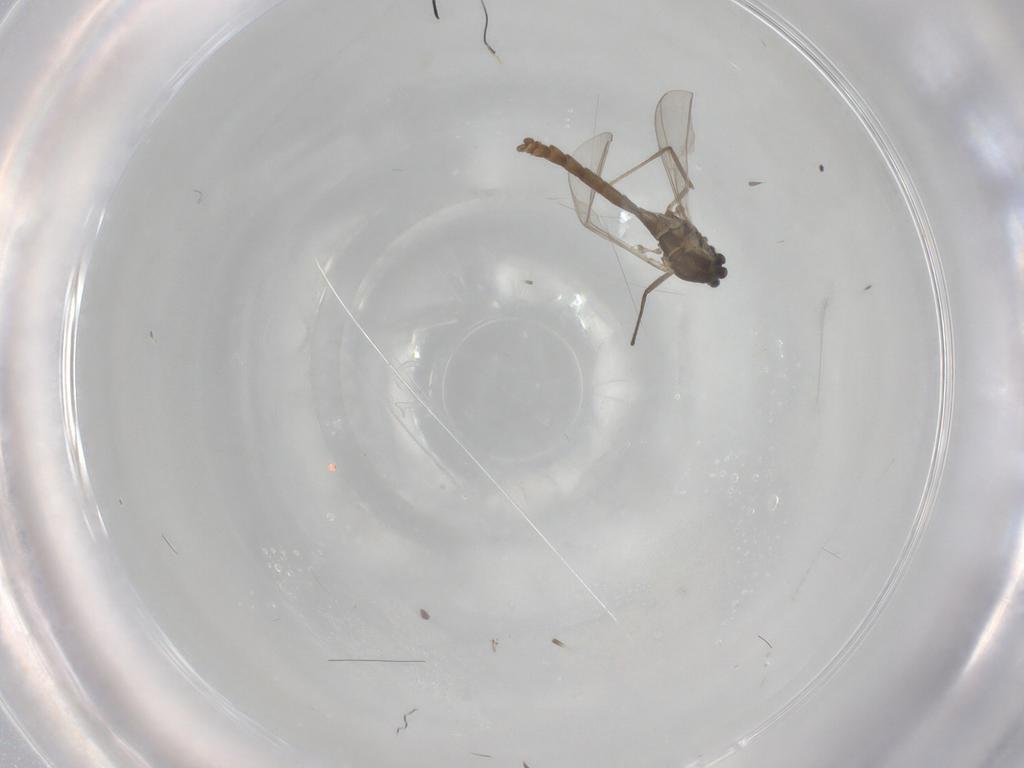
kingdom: Animalia
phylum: Arthropoda
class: Insecta
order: Diptera
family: Chironomidae
